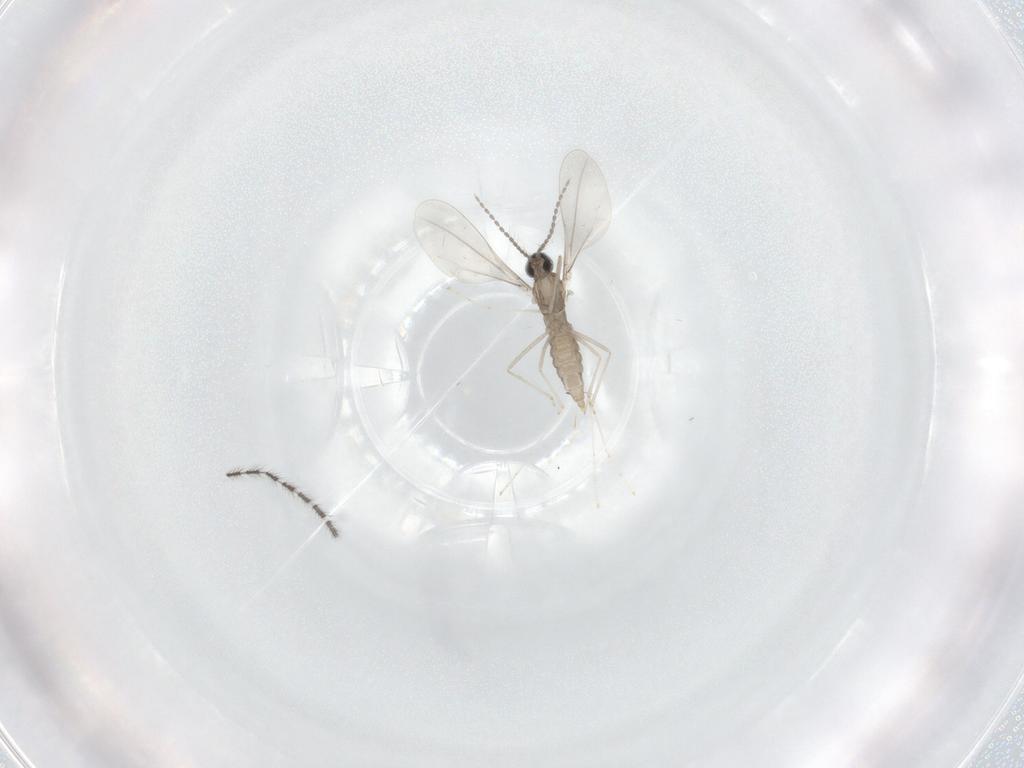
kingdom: Animalia
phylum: Arthropoda
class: Insecta
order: Diptera
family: Cecidomyiidae
